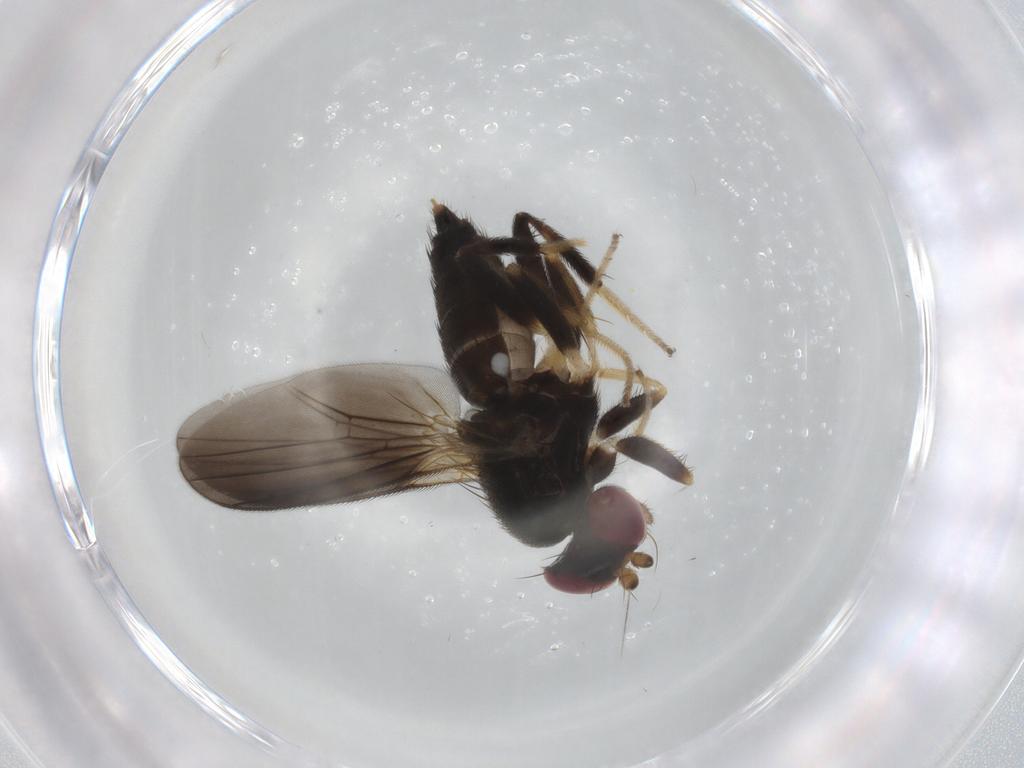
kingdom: Animalia
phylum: Arthropoda
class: Insecta
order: Diptera
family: Clusiidae
